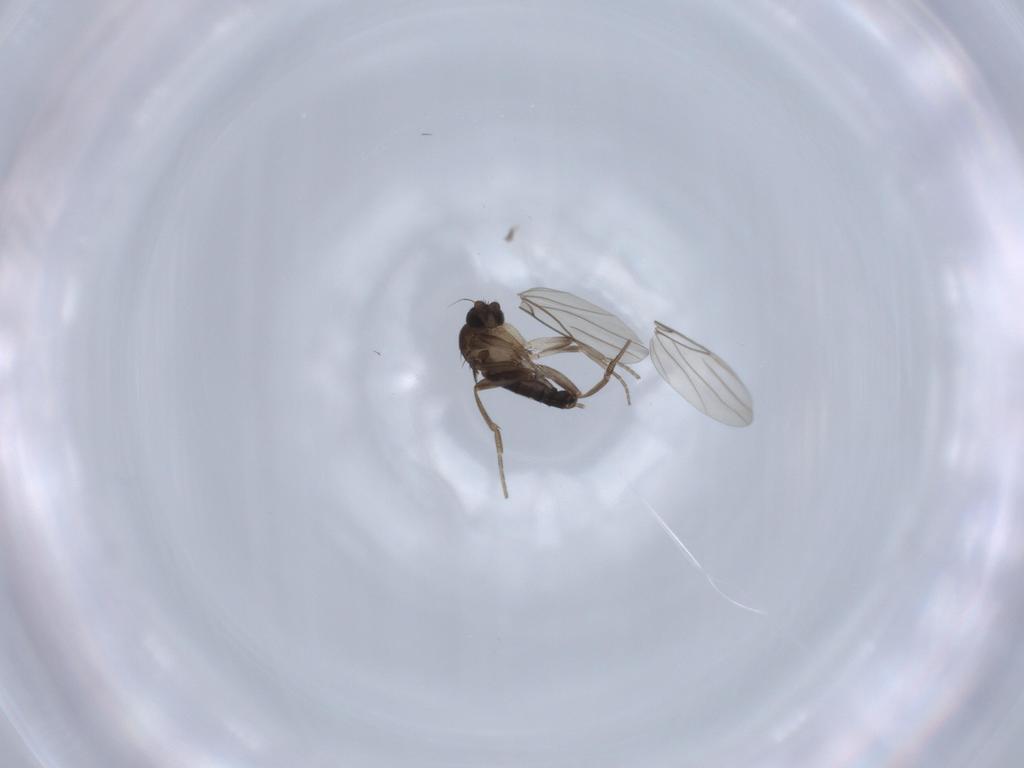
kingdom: Animalia
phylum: Arthropoda
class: Insecta
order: Diptera
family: Phoridae
